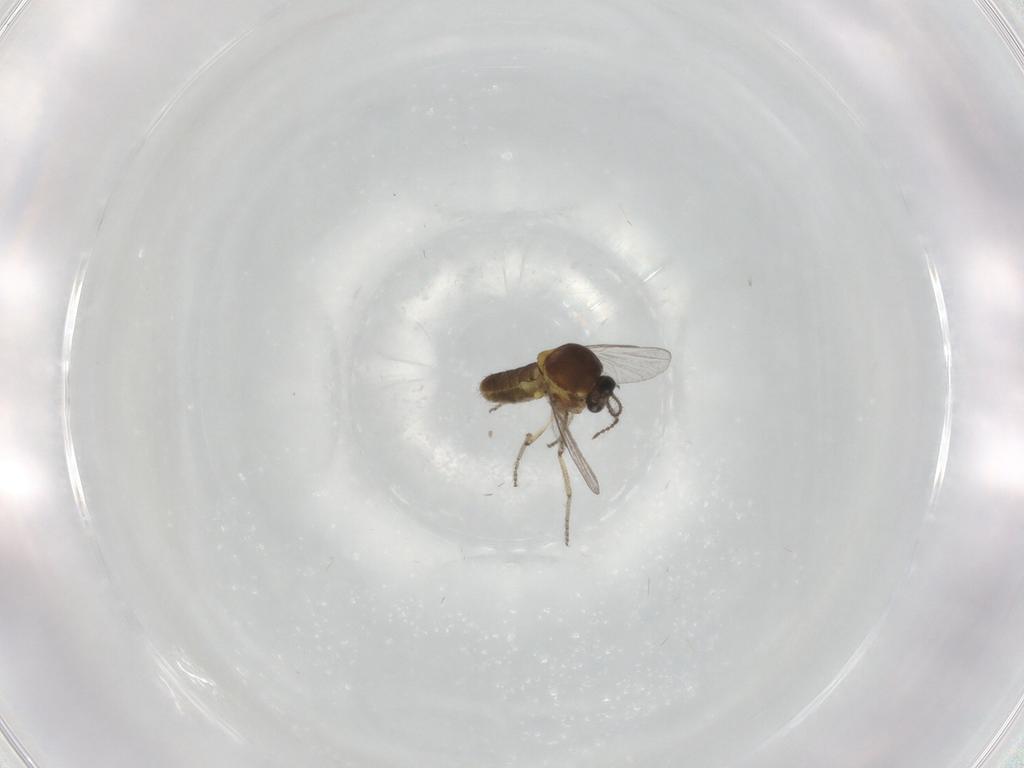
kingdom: Animalia
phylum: Arthropoda
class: Insecta
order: Diptera
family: Ceratopogonidae
